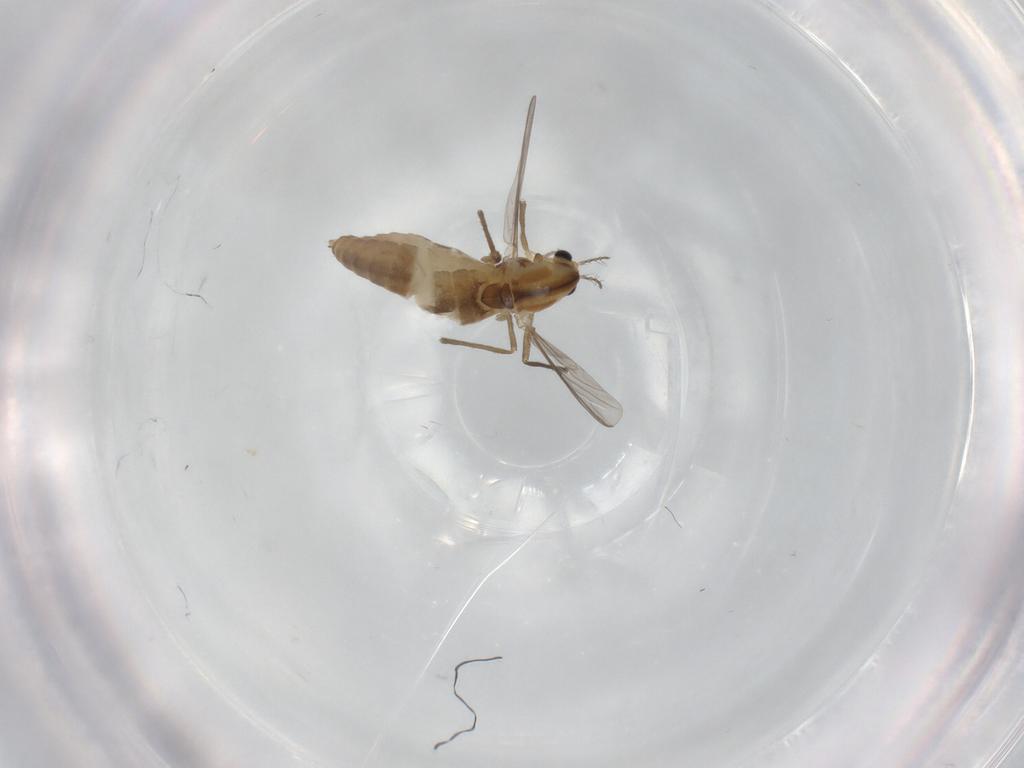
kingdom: Animalia
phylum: Arthropoda
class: Insecta
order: Diptera
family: Chironomidae
